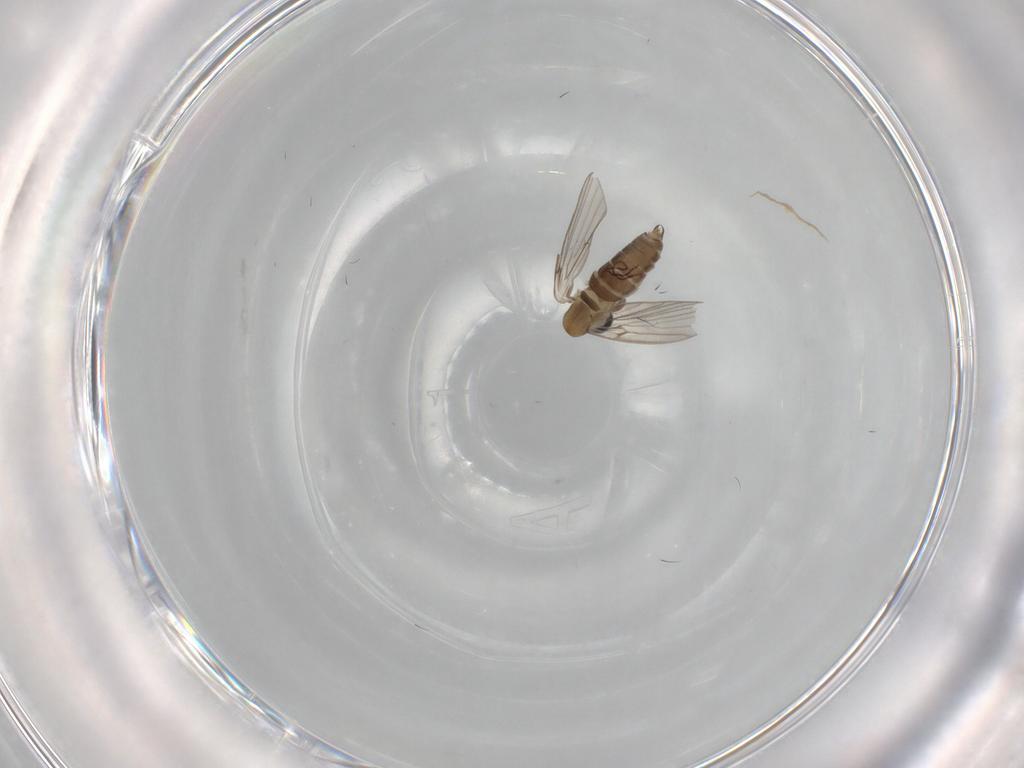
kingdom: Animalia
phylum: Arthropoda
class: Insecta
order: Diptera
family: Psychodidae
